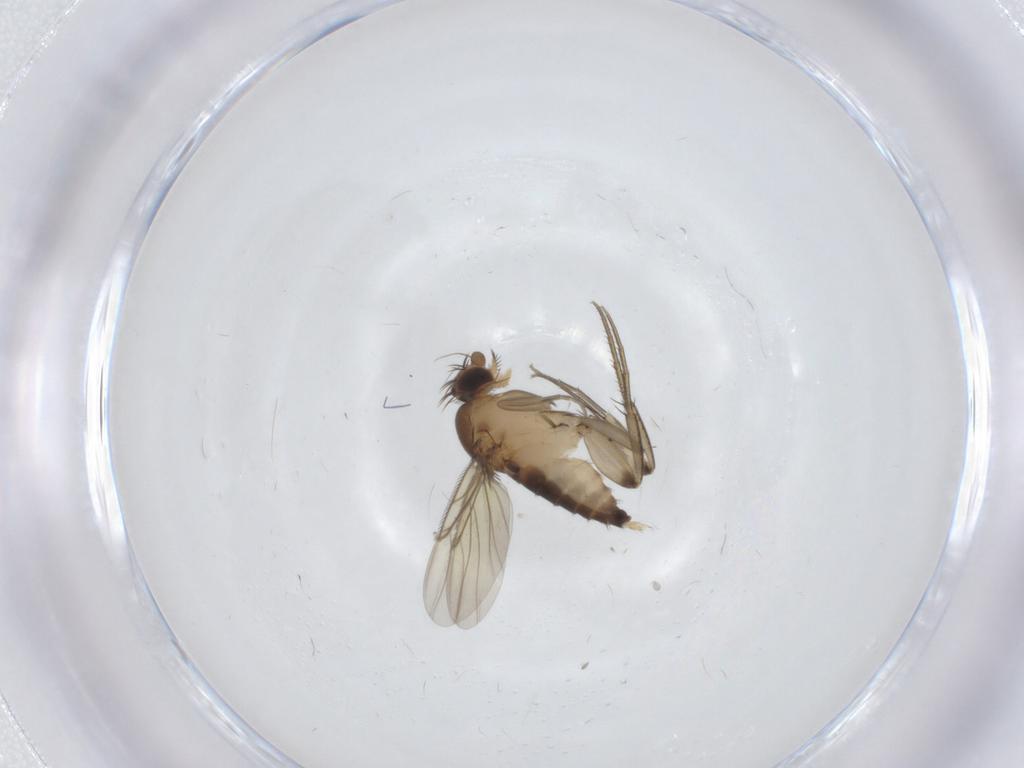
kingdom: Animalia
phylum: Arthropoda
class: Insecta
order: Diptera
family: Phoridae
